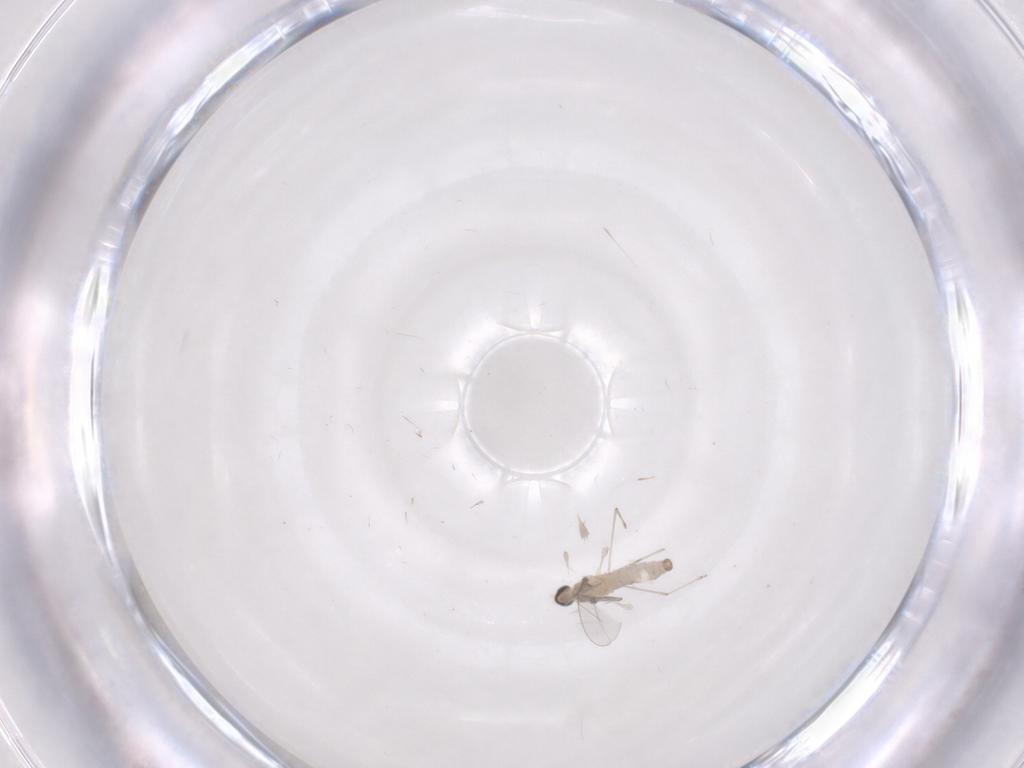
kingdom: Animalia
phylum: Arthropoda
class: Insecta
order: Diptera
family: Cecidomyiidae
